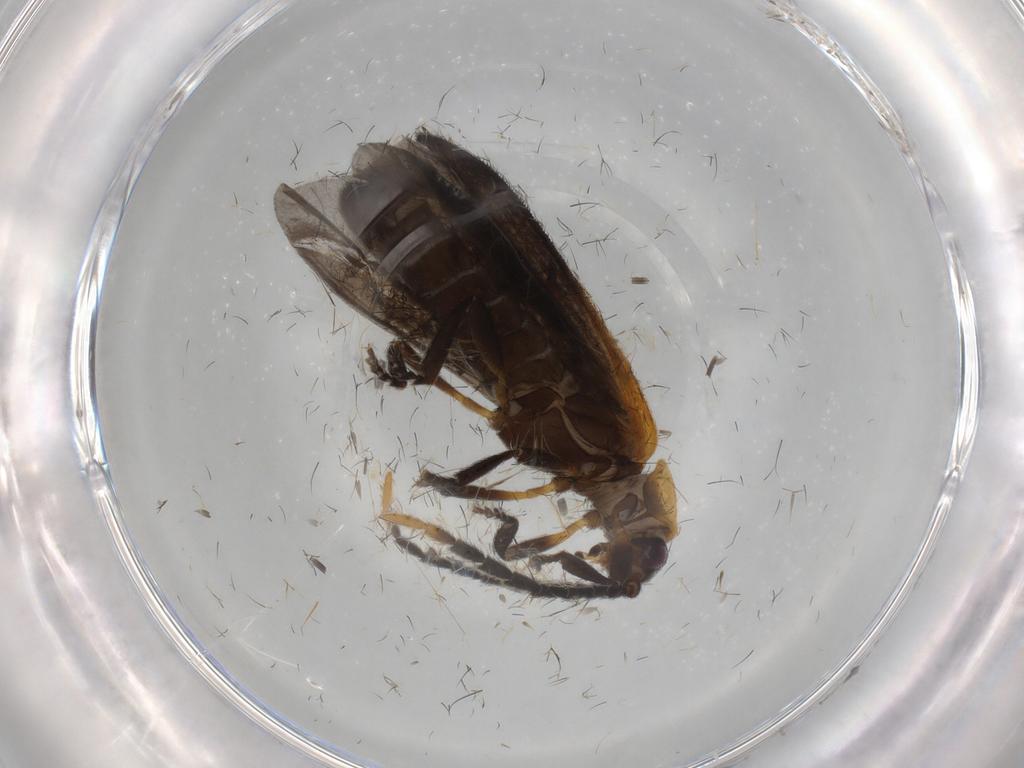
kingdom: Animalia
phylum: Arthropoda
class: Insecta
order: Coleoptera
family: Lycidae
